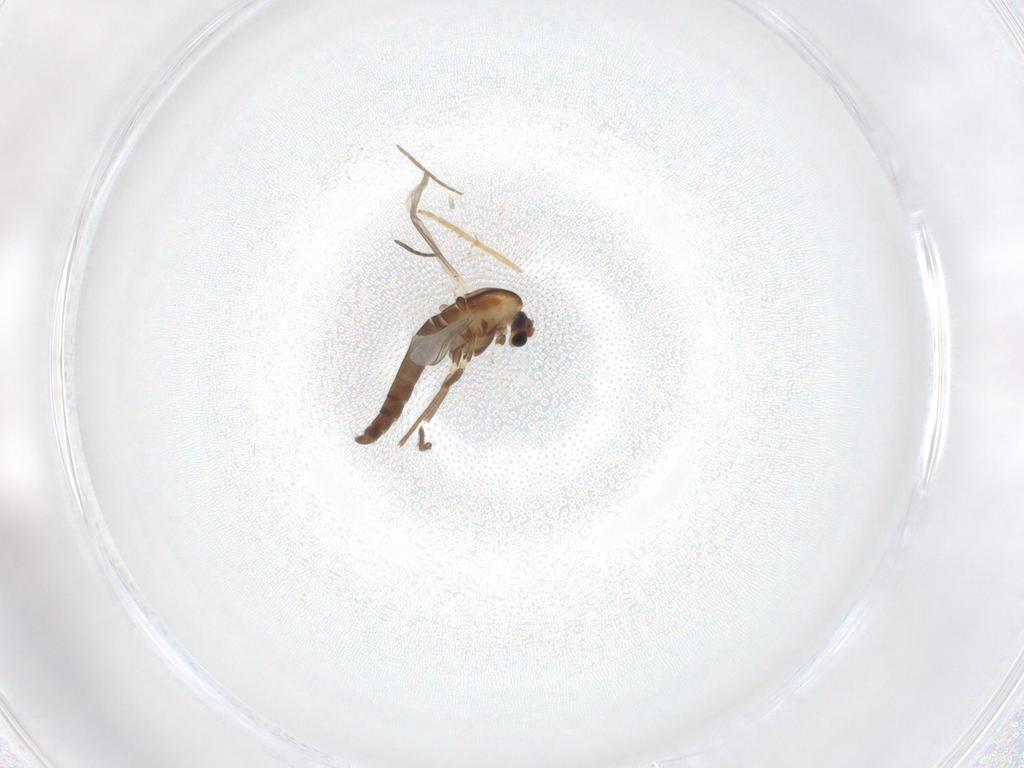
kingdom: Animalia
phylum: Arthropoda
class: Insecta
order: Diptera
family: Chironomidae
